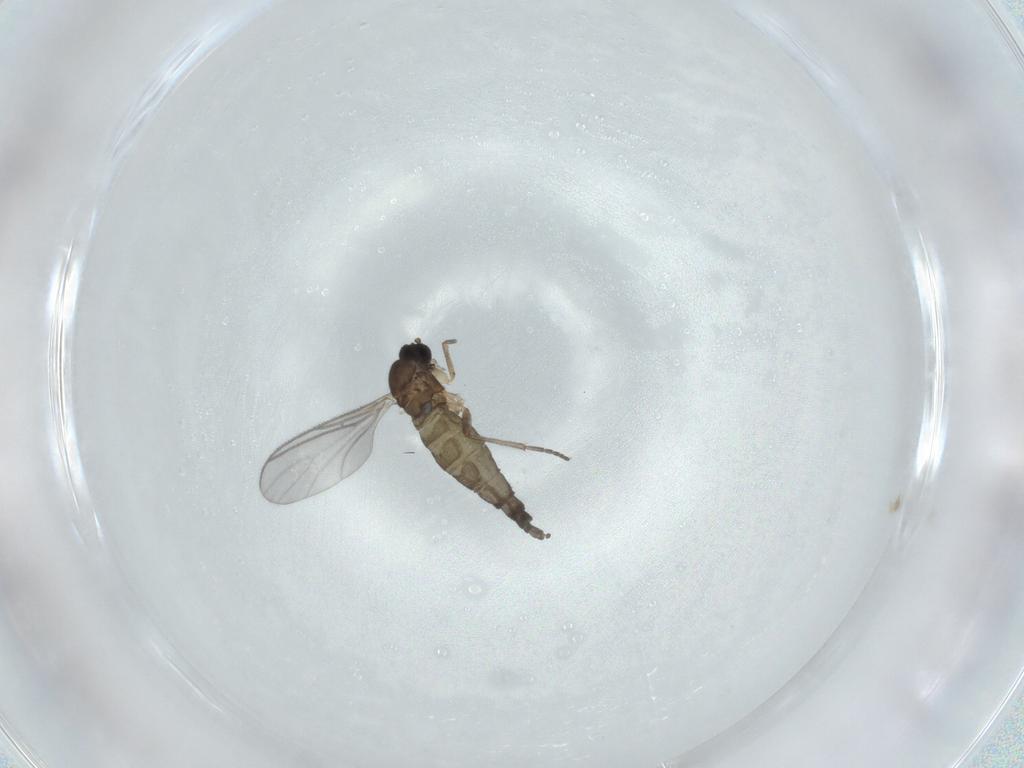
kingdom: Animalia
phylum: Arthropoda
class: Insecta
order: Diptera
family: Sciaridae
